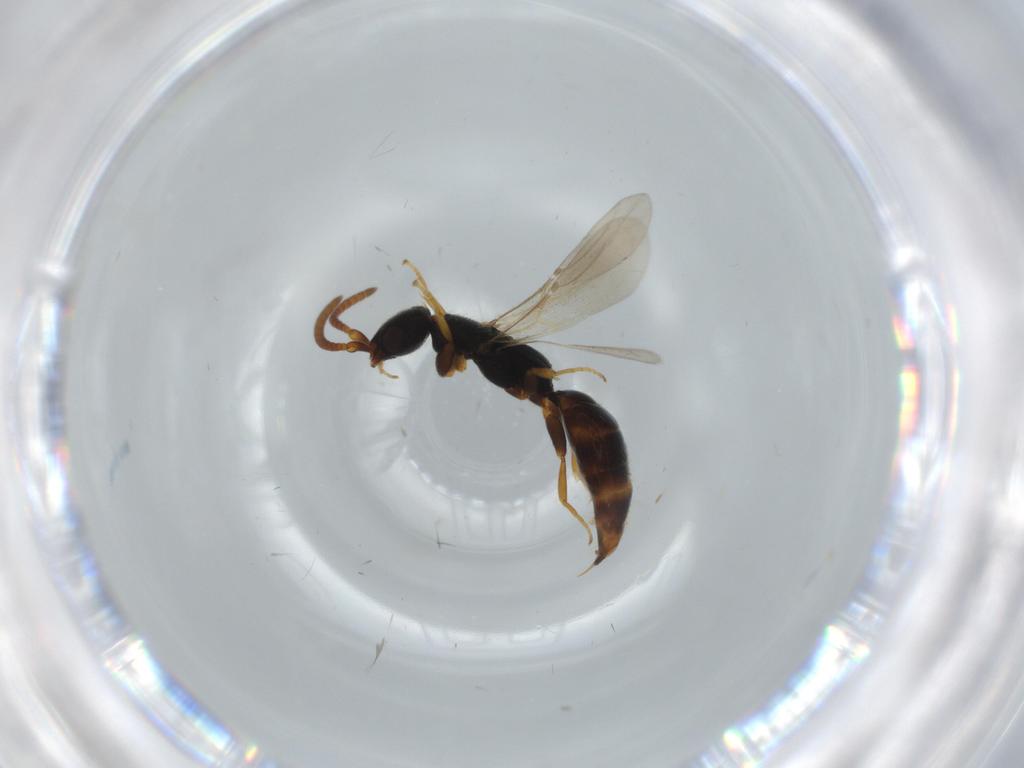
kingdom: Animalia
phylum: Arthropoda
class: Insecta
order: Hymenoptera
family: Bethylidae
